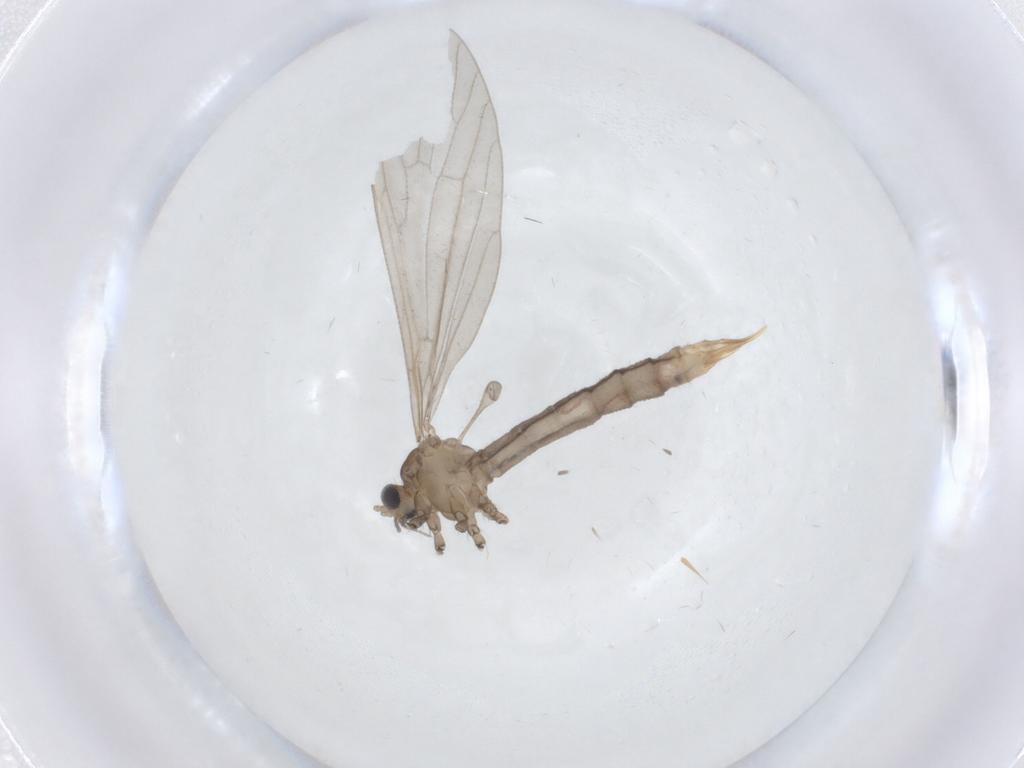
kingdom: Animalia
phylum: Arthropoda
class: Insecta
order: Diptera
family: Limoniidae
